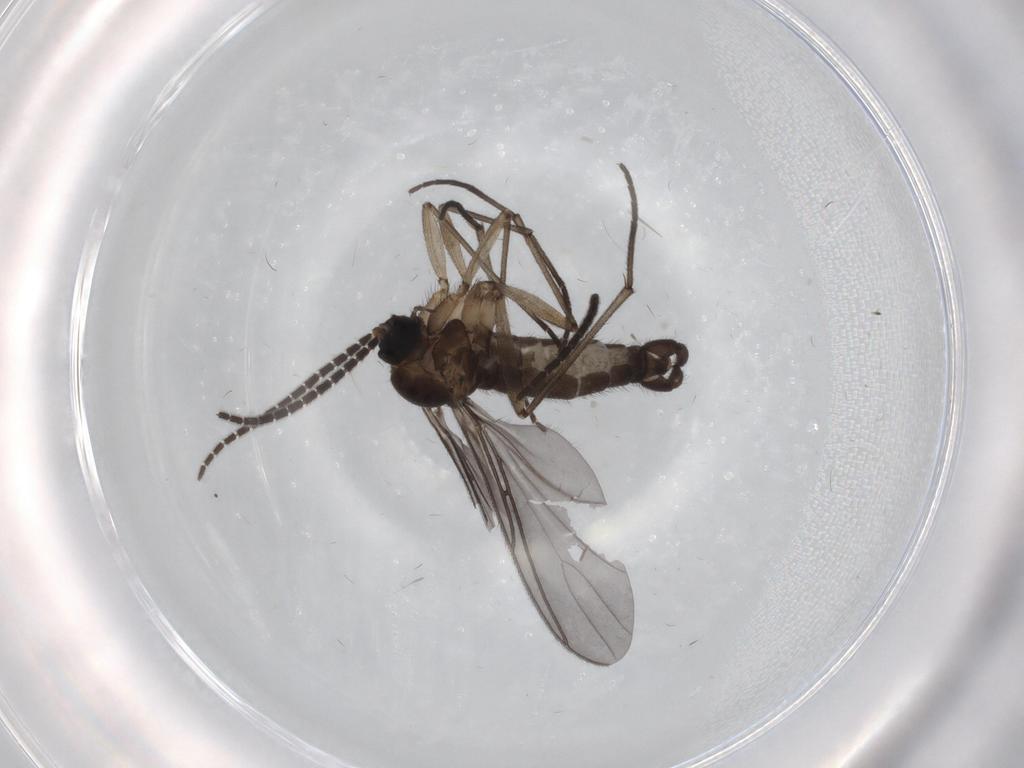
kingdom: Animalia
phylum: Arthropoda
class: Insecta
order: Diptera
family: Sciaridae
